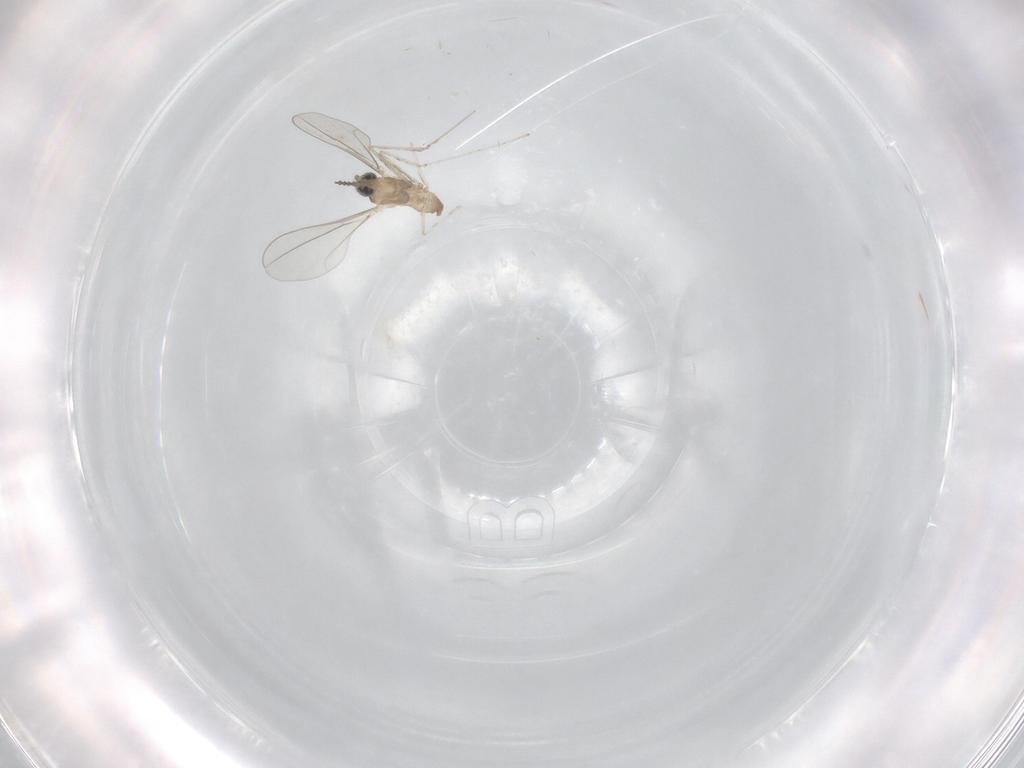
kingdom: Animalia
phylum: Arthropoda
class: Insecta
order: Diptera
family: Cecidomyiidae
